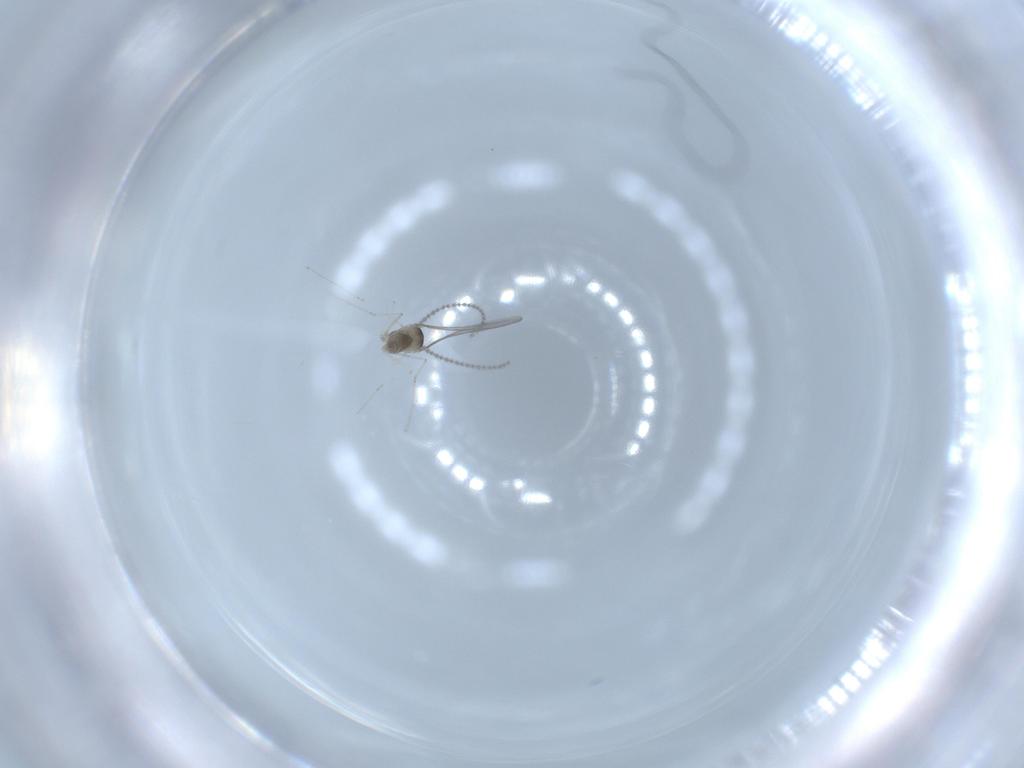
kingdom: Animalia
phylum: Arthropoda
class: Insecta
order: Diptera
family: Cecidomyiidae
